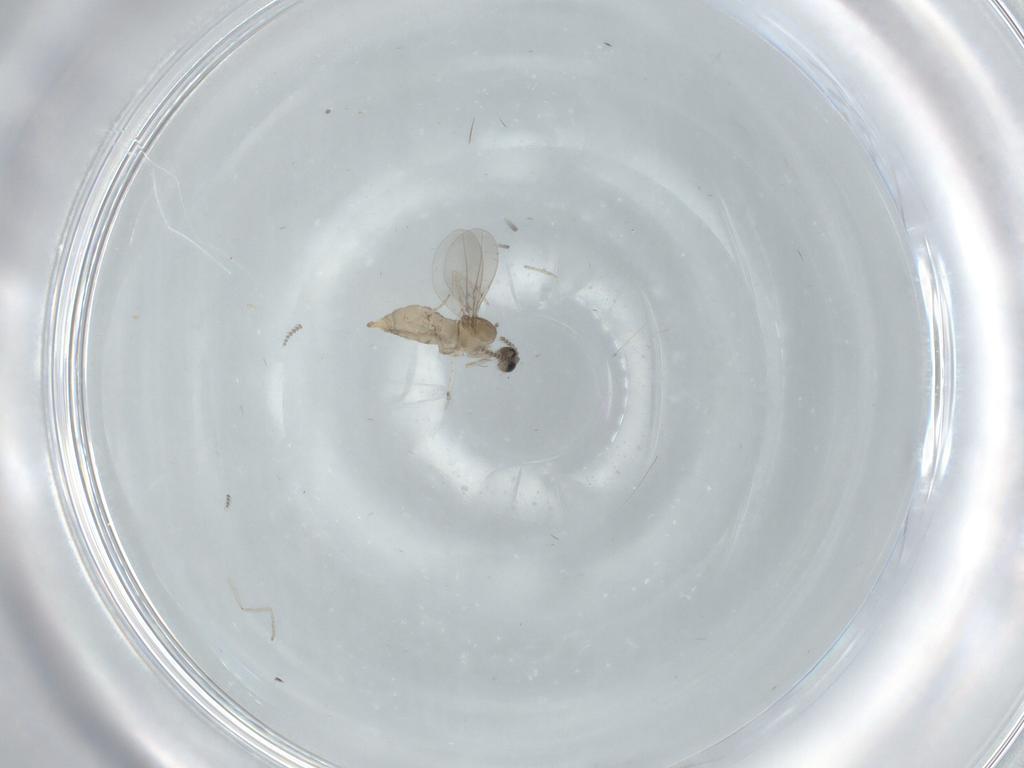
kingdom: Animalia
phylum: Arthropoda
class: Insecta
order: Diptera
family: Cecidomyiidae
